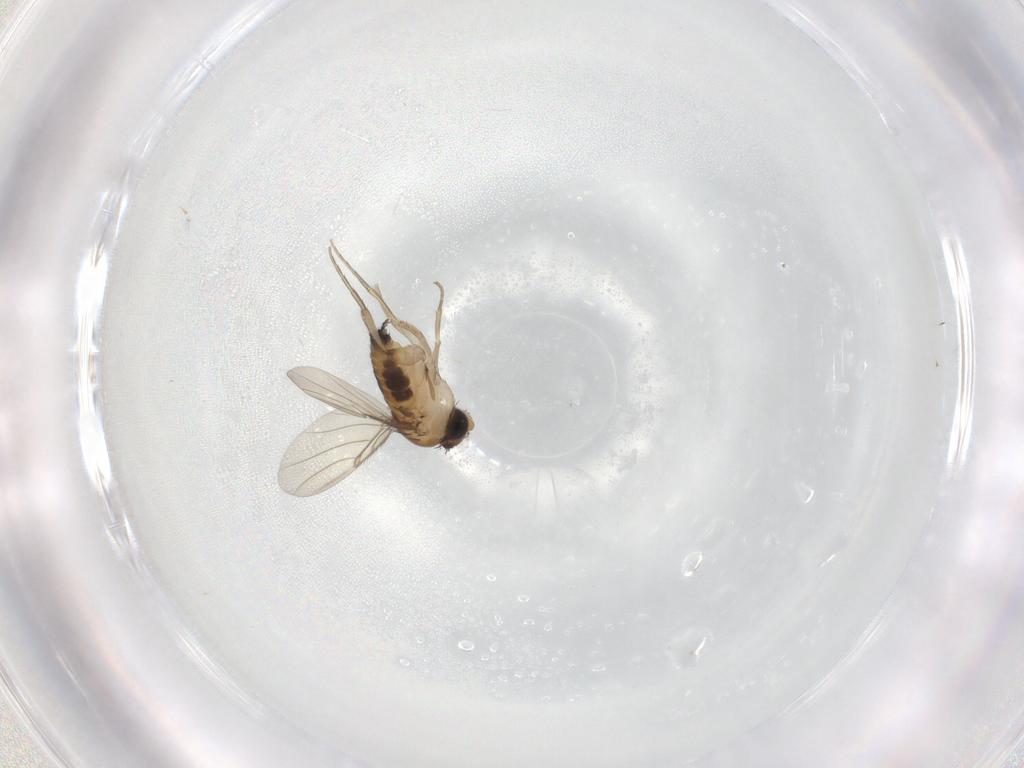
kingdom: Animalia
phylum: Arthropoda
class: Insecta
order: Diptera
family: Phoridae
